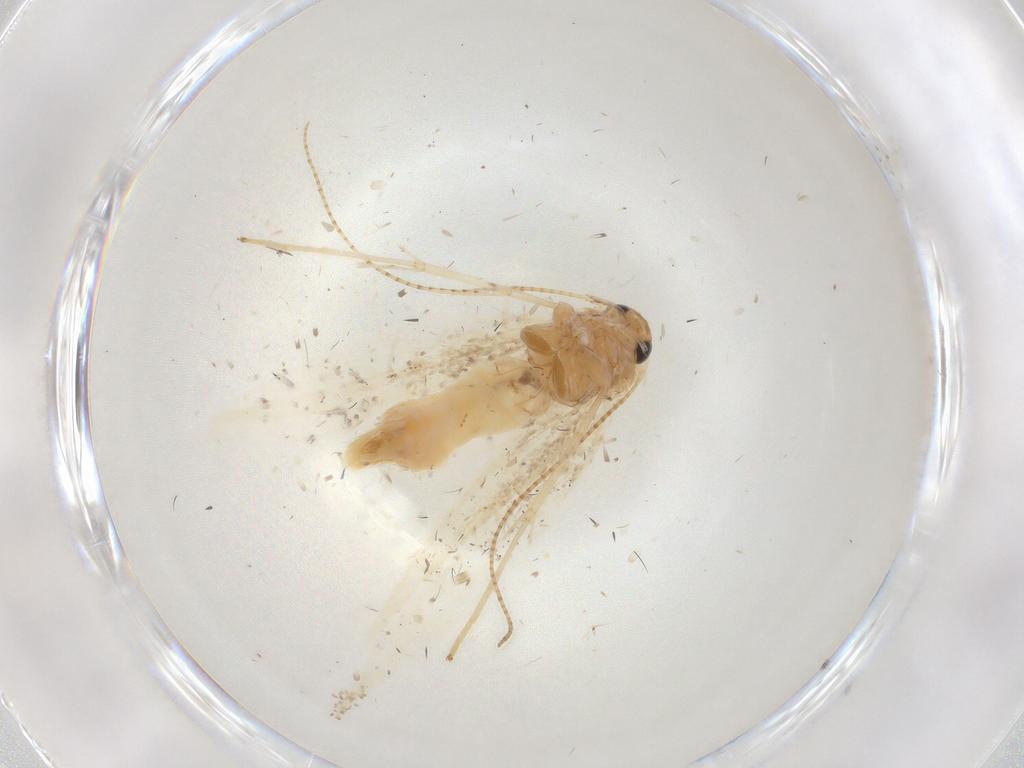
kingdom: Animalia
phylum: Arthropoda
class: Insecta
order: Lepidoptera
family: Gracillariidae
